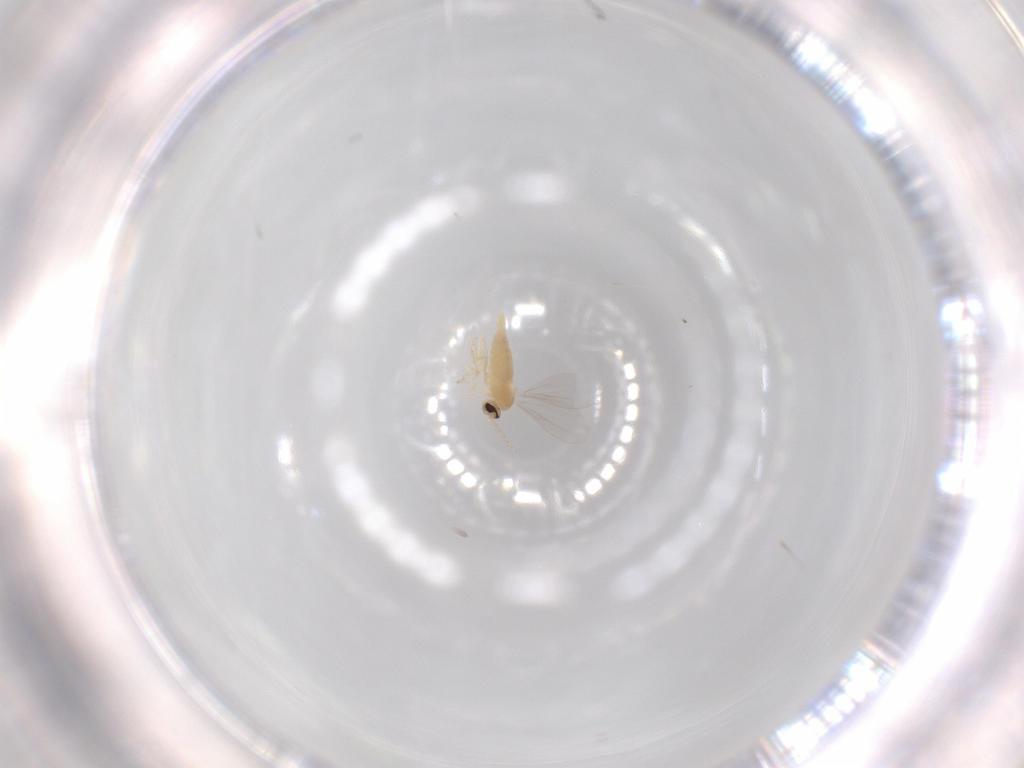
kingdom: Animalia
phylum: Arthropoda
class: Insecta
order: Diptera
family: Cecidomyiidae
